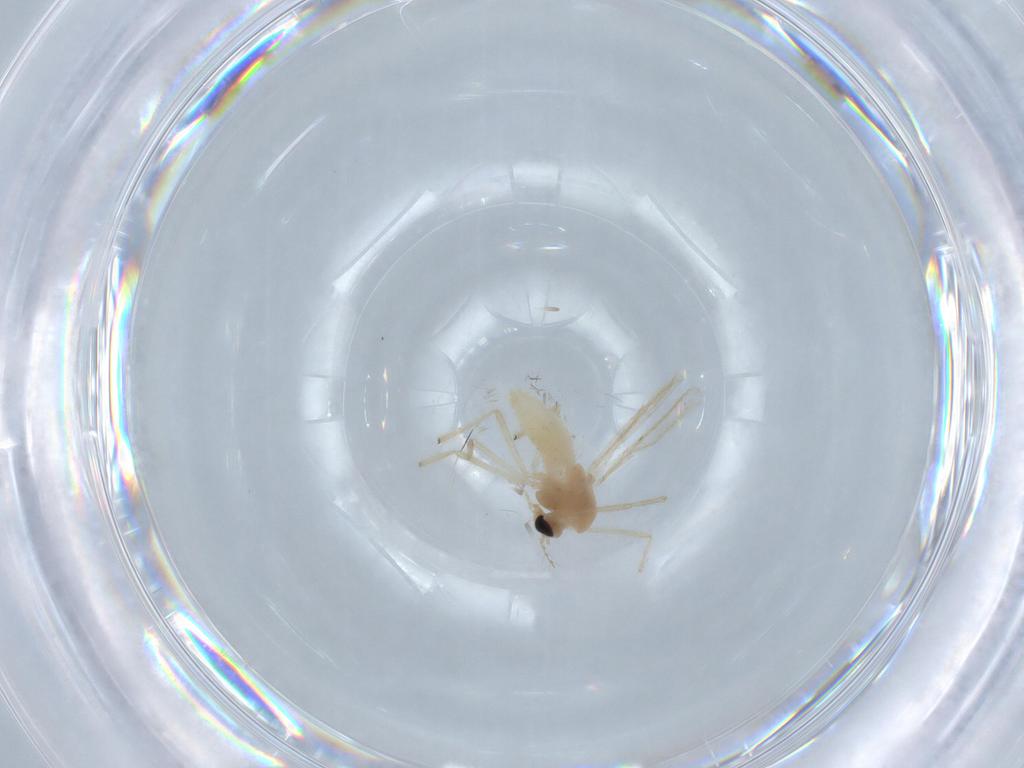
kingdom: Animalia
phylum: Arthropoda
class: Insecta
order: Diptera
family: Chironomidae
